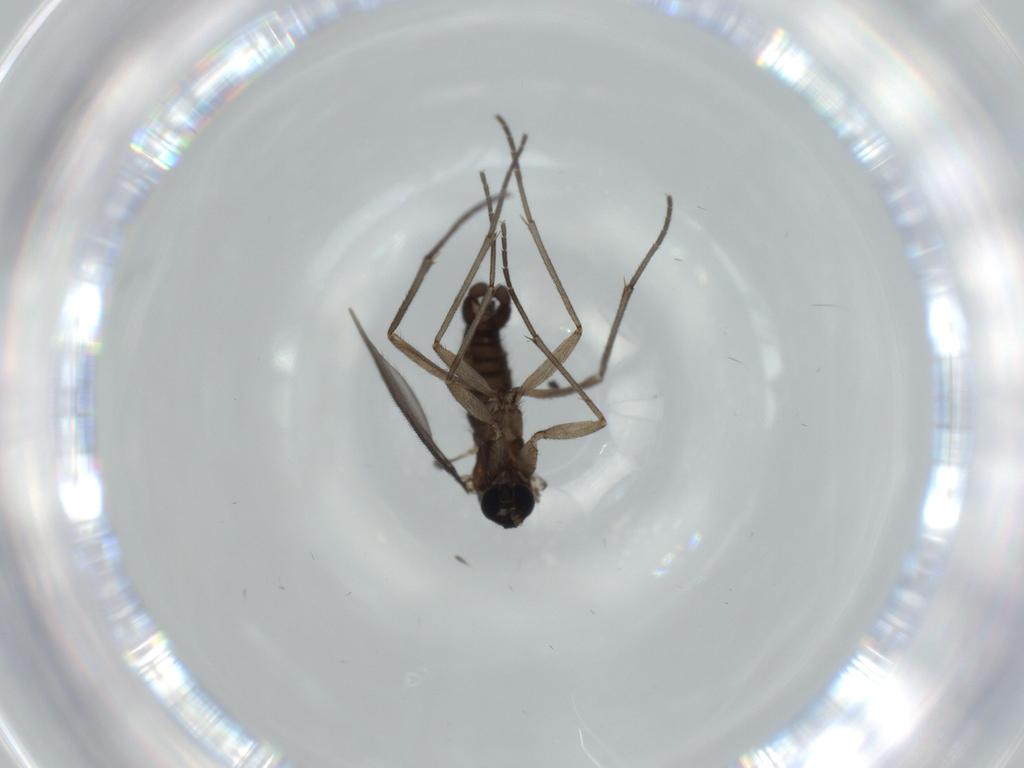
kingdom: Animalia
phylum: Arthropoda
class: Insecta
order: Diptera
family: Sciaridae
